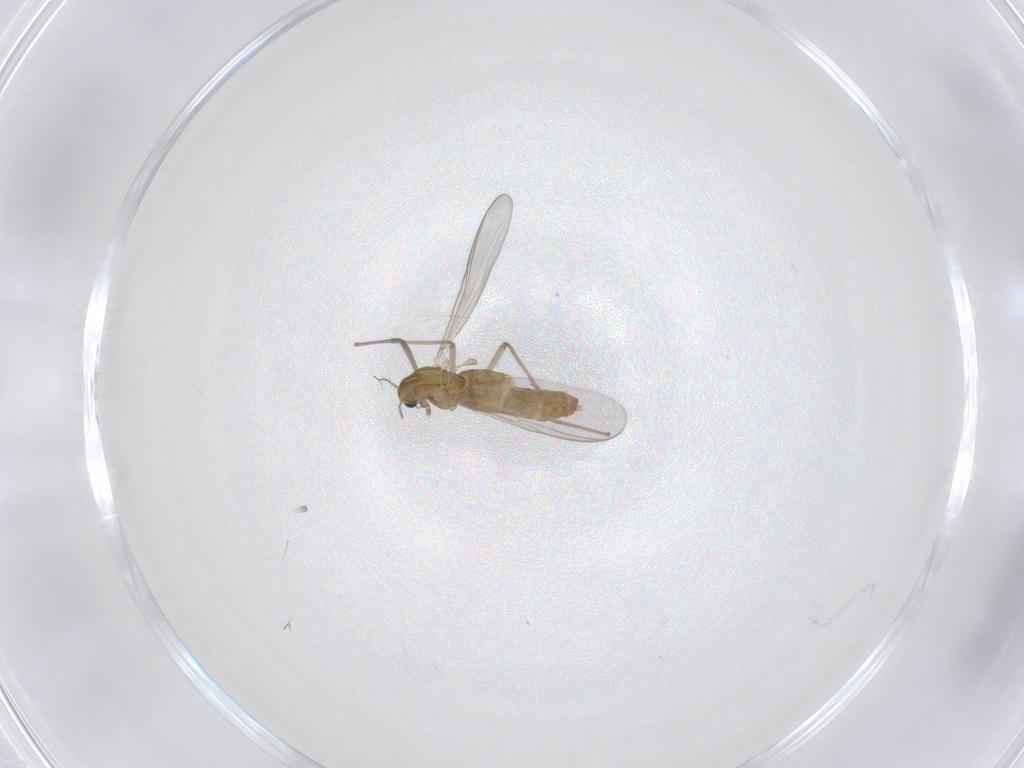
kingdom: Animalia
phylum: Arthropoda
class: Insecta
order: Diptera
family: Chironomidae
